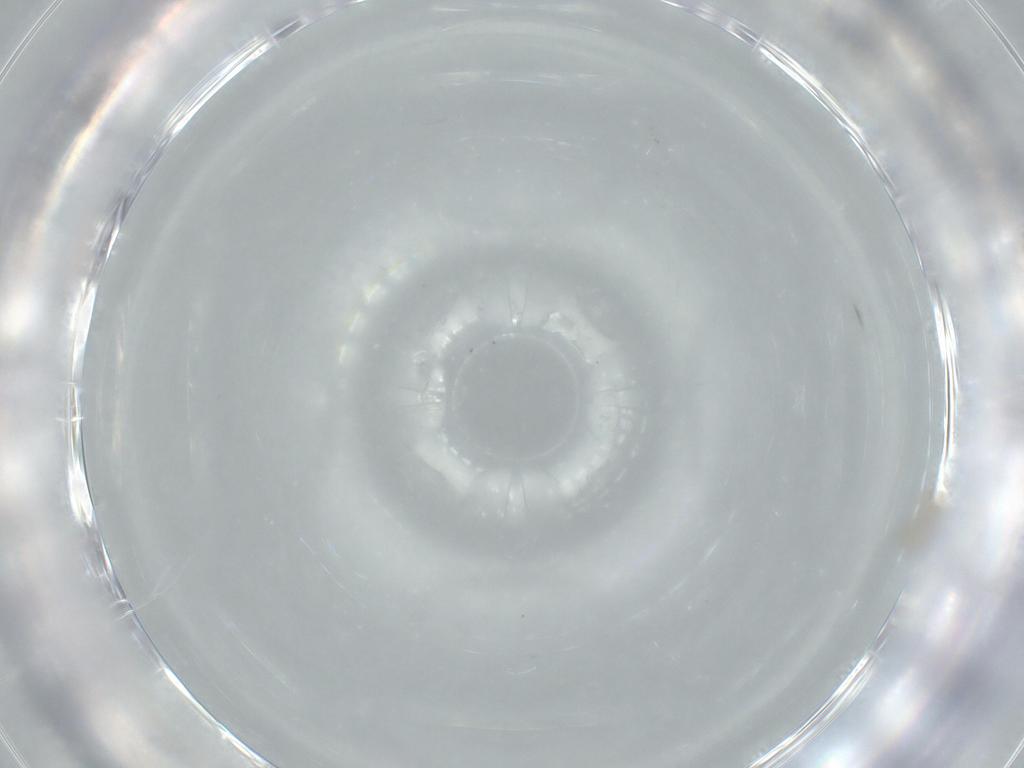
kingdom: Animalia
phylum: Arthropoda
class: Insecta
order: Diptera
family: Cecidomyiidae
